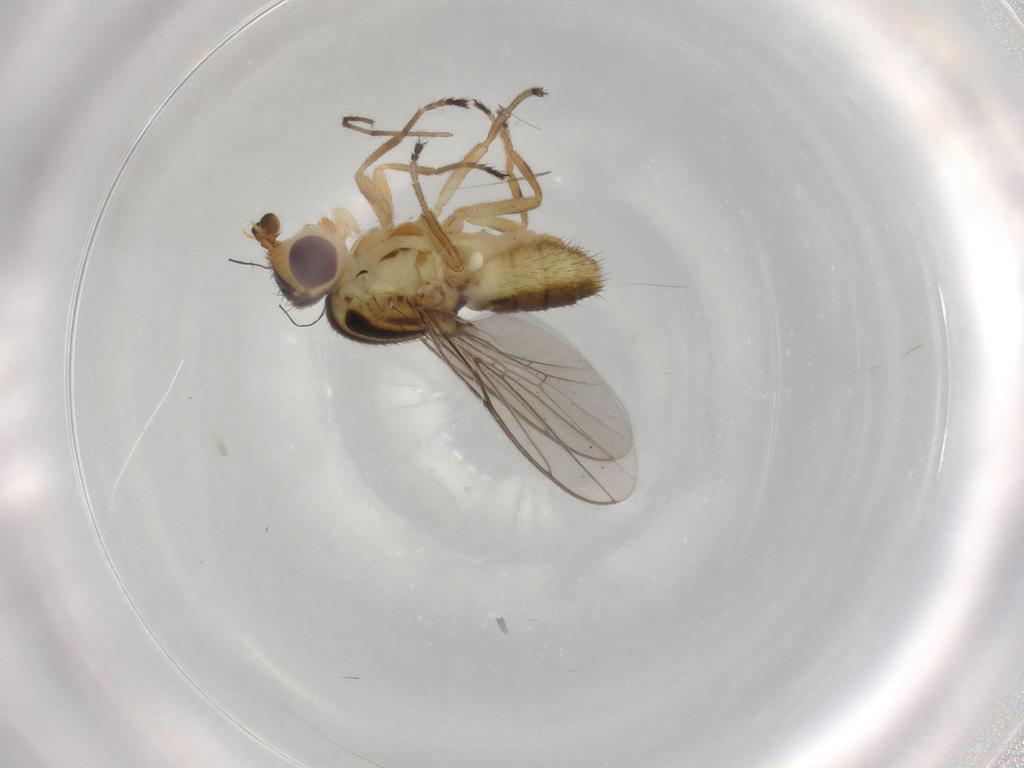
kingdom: Animalia
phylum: Arthropoda
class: Insecta
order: Diptera
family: Chloropidae
